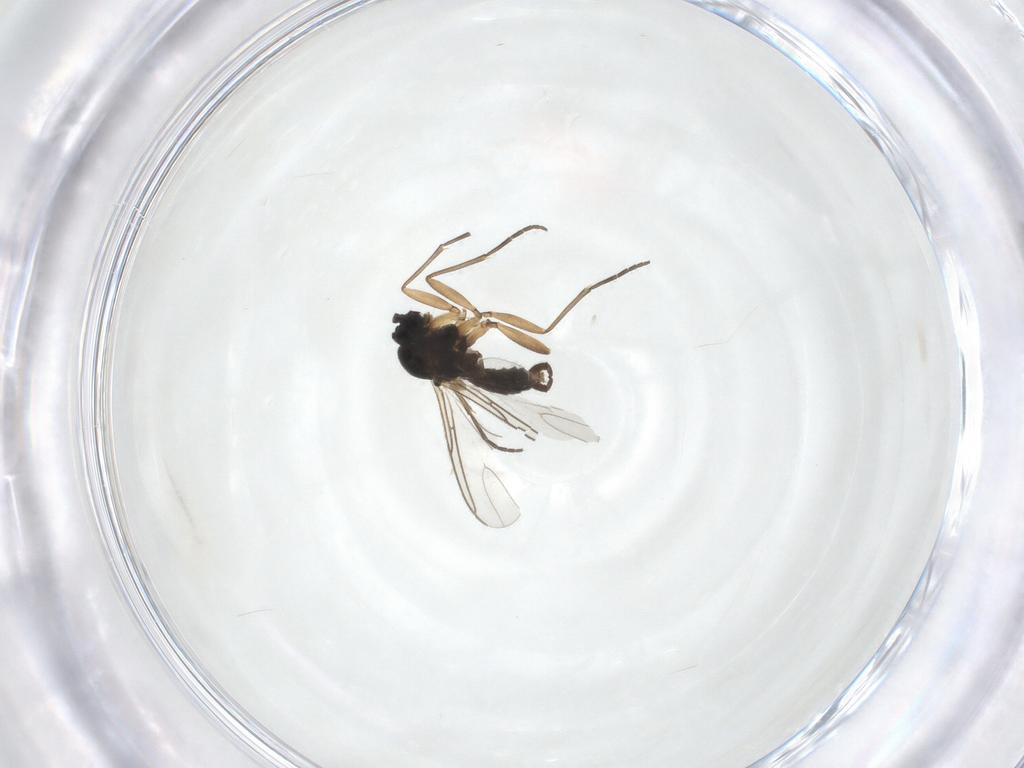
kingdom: Animalia
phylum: Arthropoda
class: Insecta
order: Diptera
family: Sciaridae
